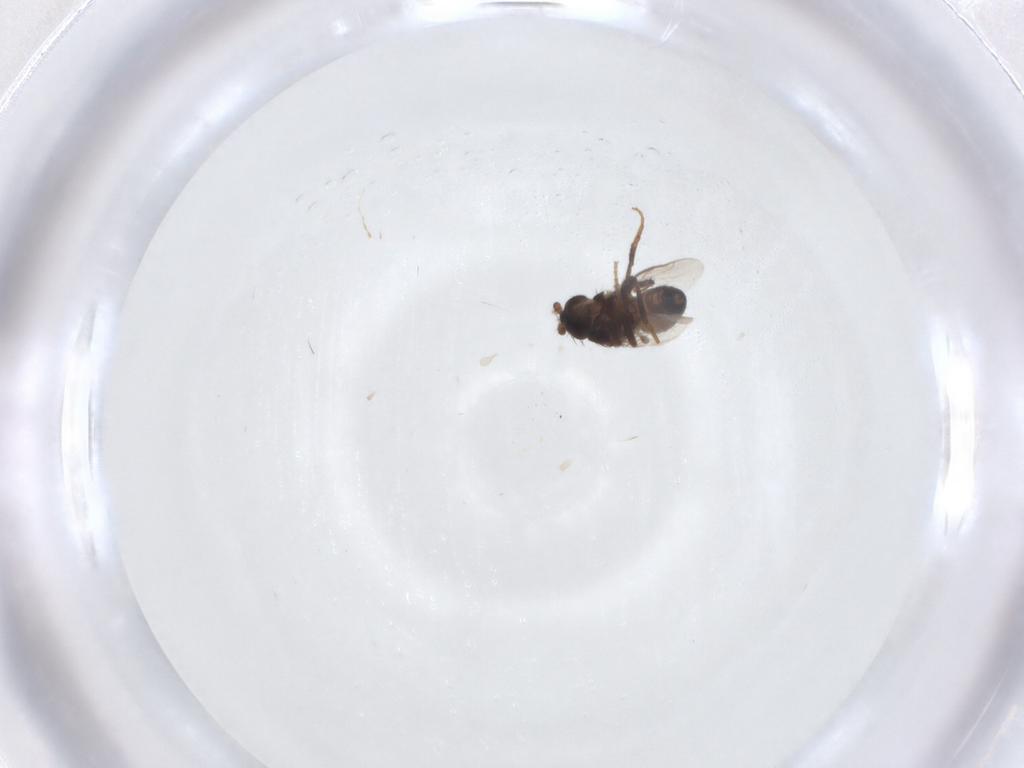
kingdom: Animalia
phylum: Arthropoda
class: Insecta
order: Diptera
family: Sphaeroceridae
